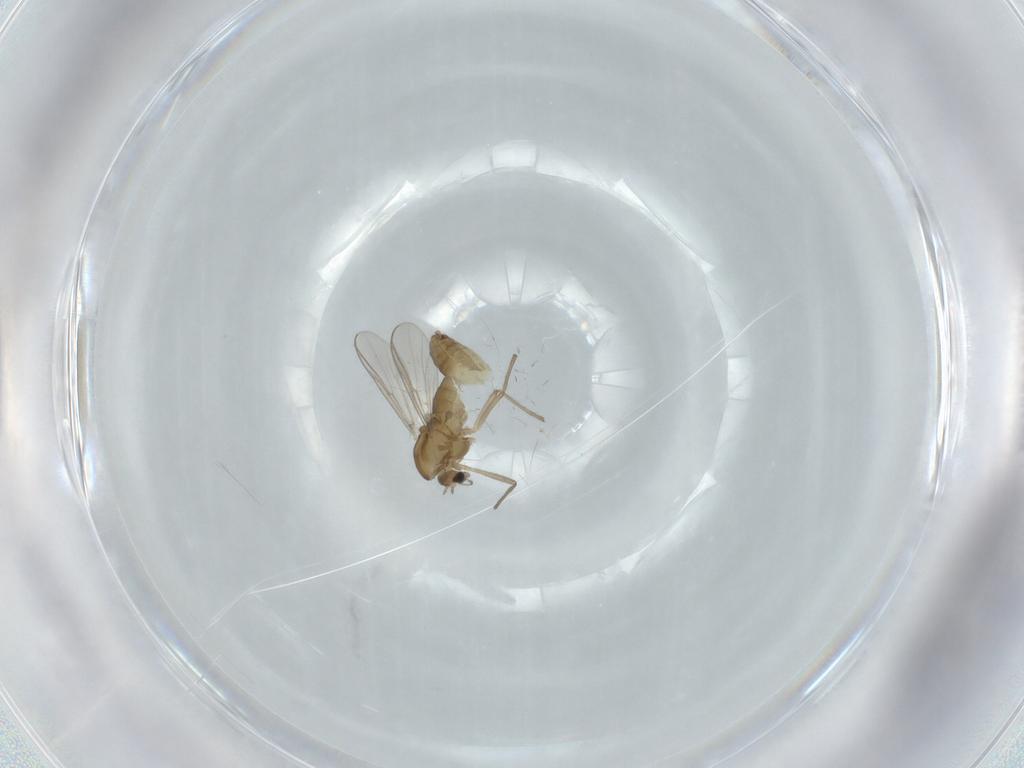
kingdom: Animalia
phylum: Arthropoda
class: Insecta
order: Diptera
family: Chironomidae
